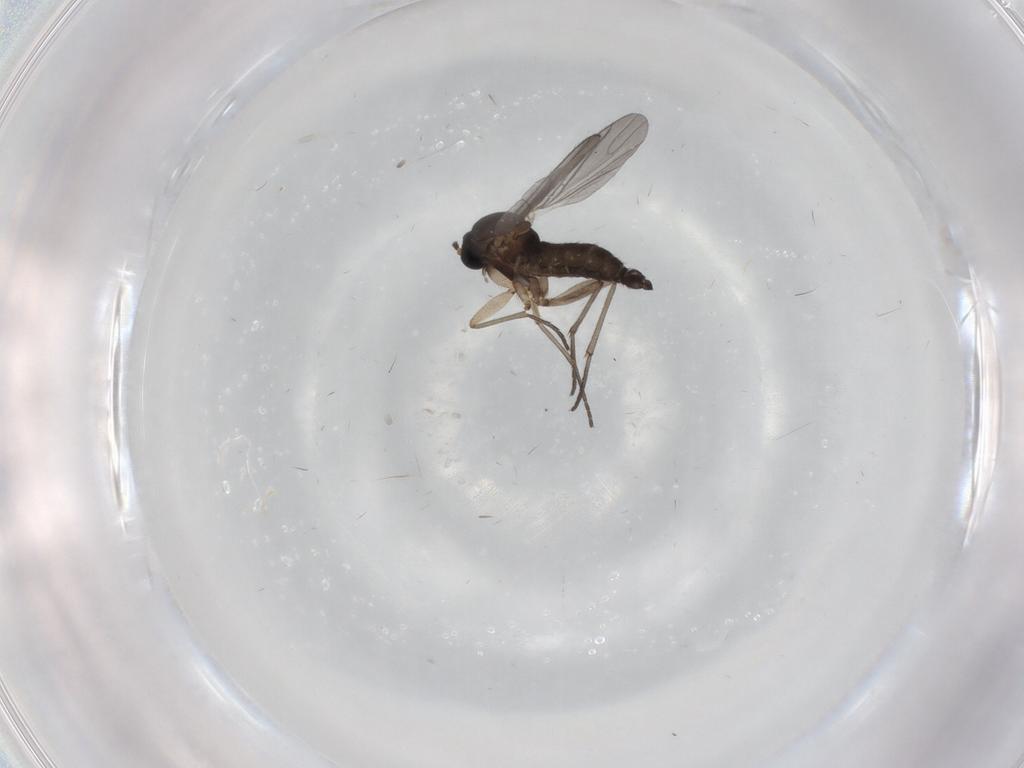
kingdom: Animalia
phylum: Arthropoda
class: Insecta
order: Diptera
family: Sciaridae
